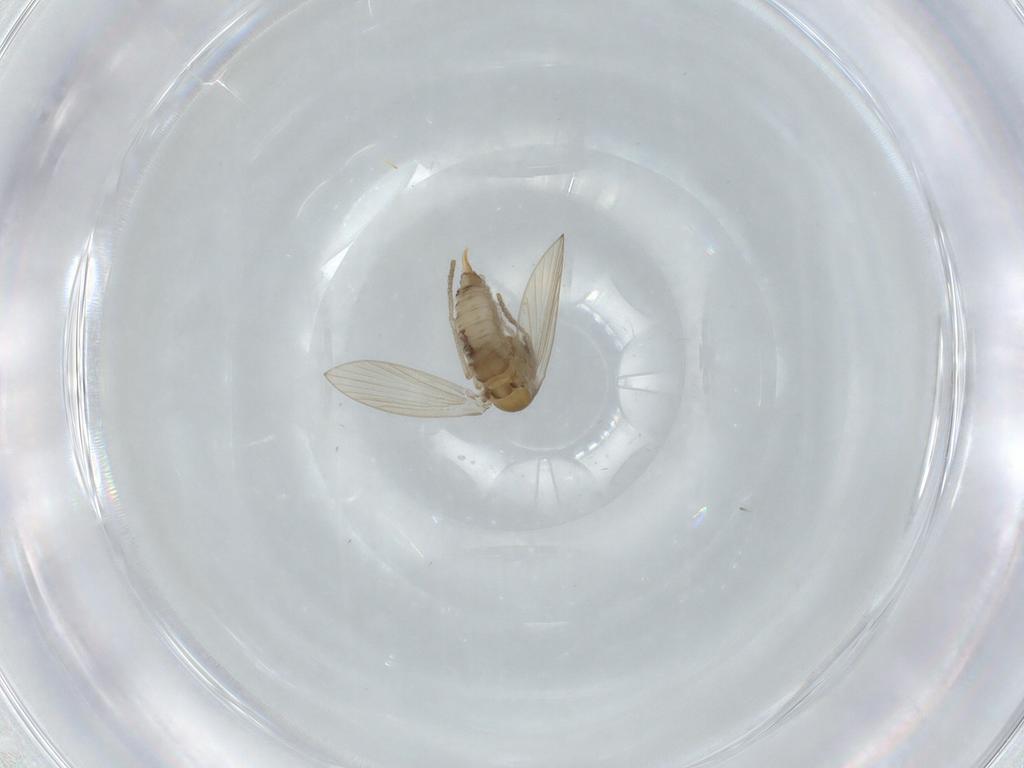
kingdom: Animalia
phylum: Arthropoda
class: Insecta
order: Diptera
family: Psychodidae
